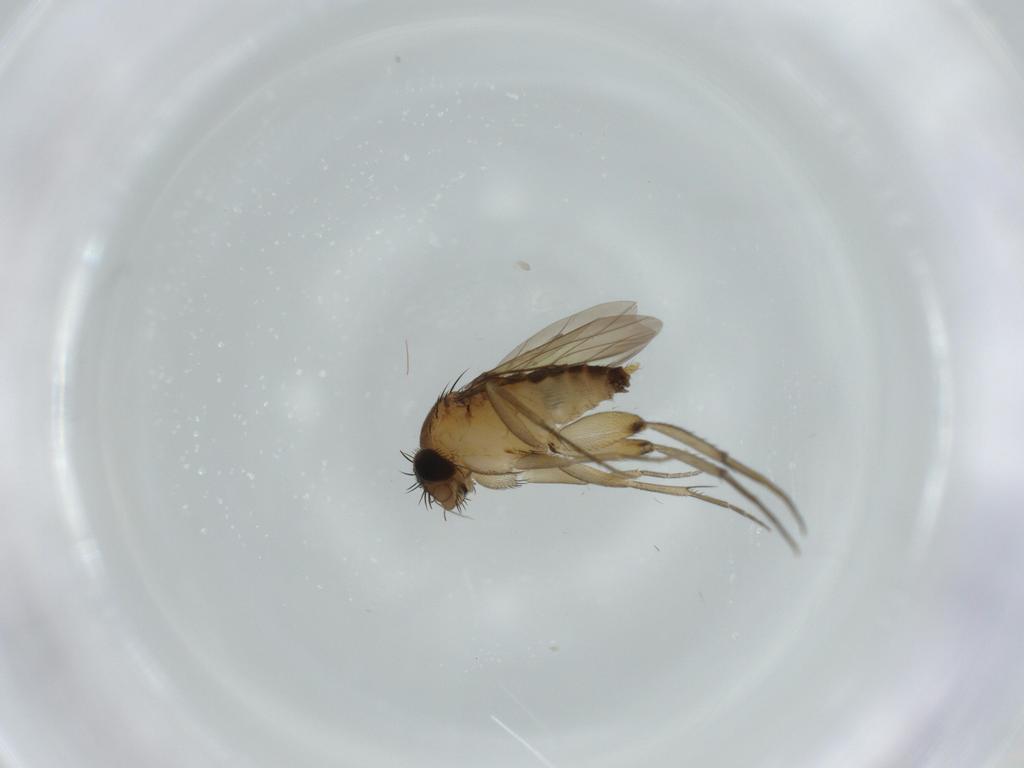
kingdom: Animalia
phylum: Arthropoda
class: Insecta
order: Diptera
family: Phoridae
